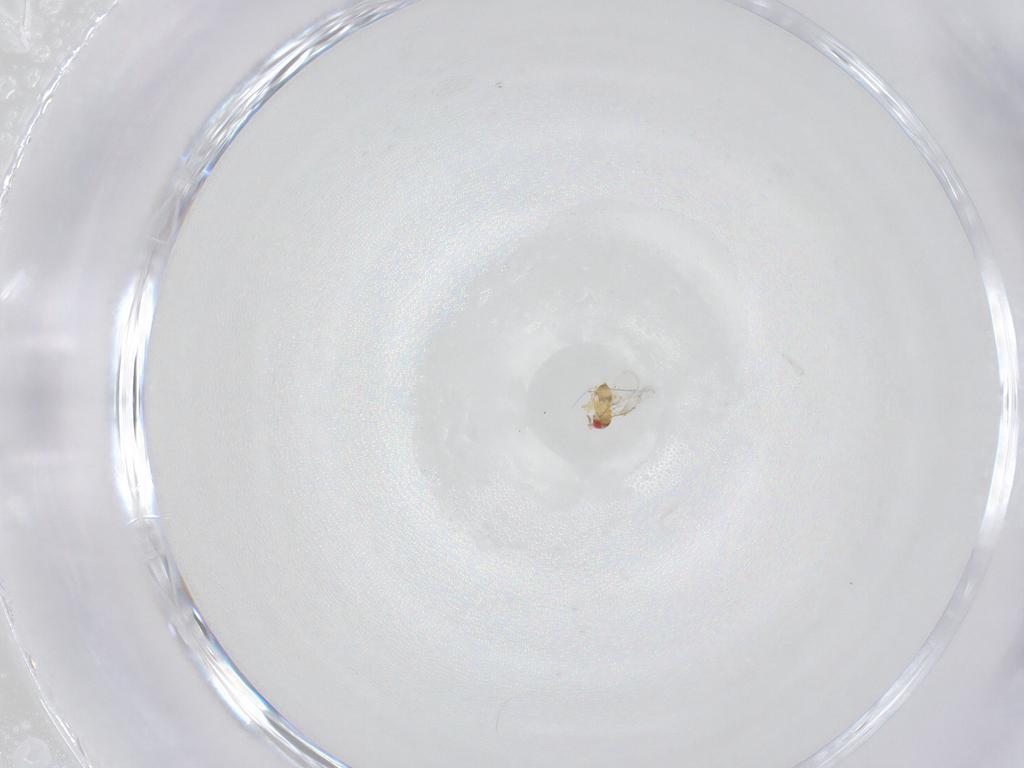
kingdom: Animalia
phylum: Arthropoda
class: Insecta
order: Hymenoptera
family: Trichogrammatidae
